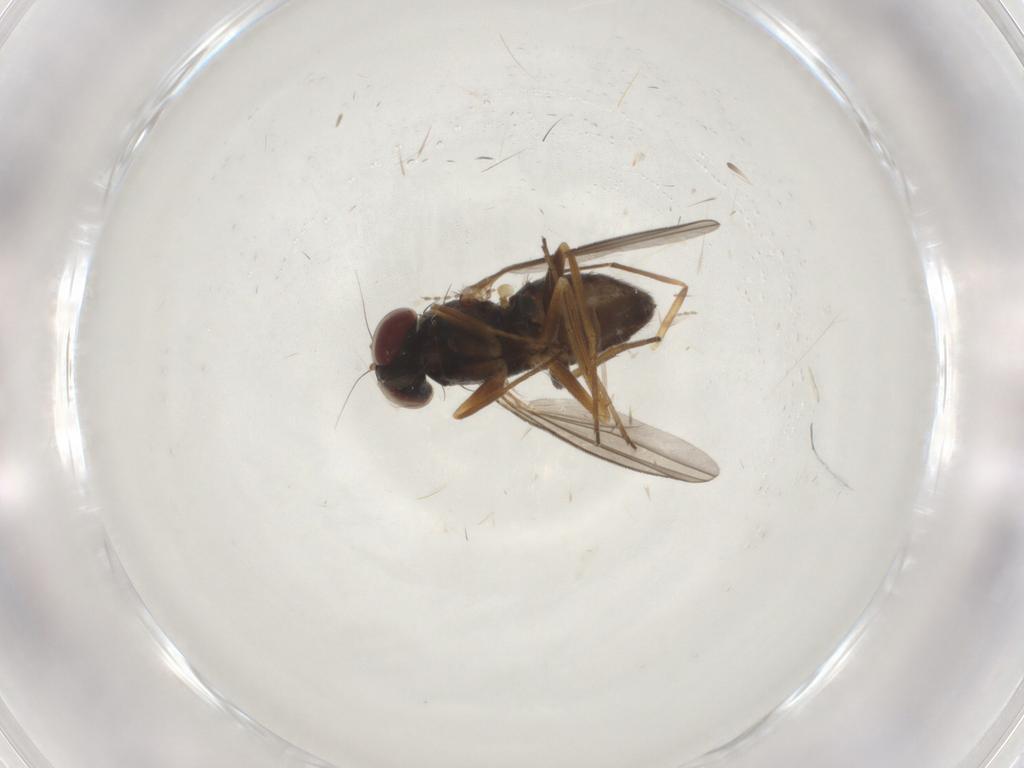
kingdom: Animalia
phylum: Arthropoda
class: Insecta
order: Diptera
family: Dolichopodidae
